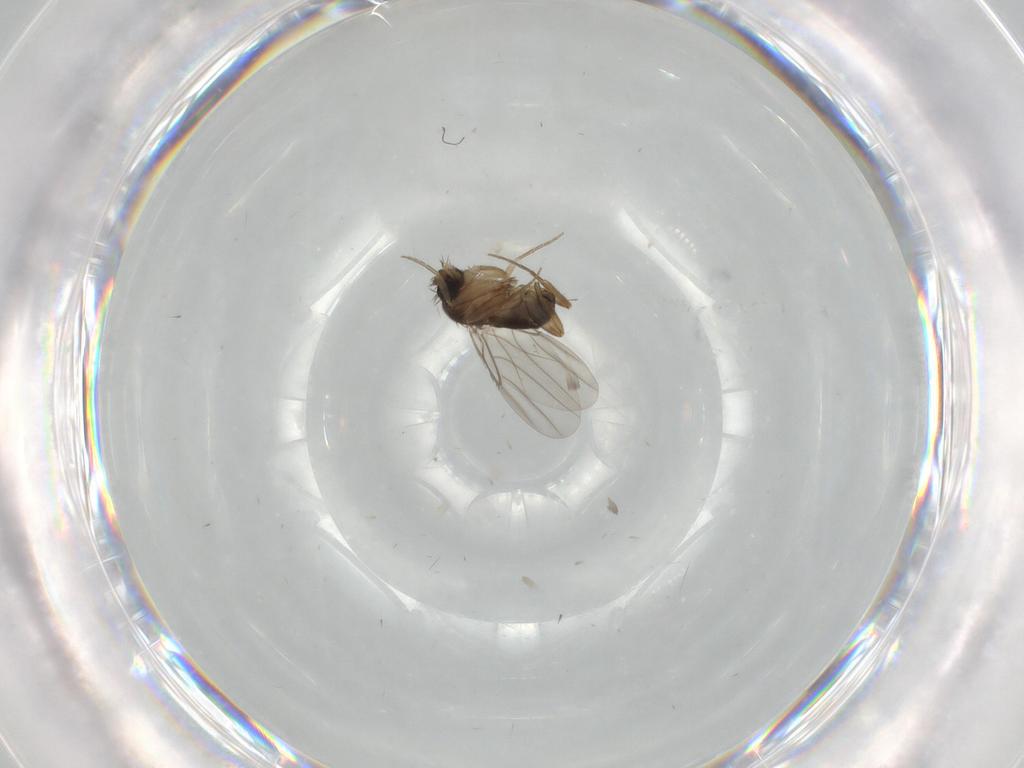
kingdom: Animalia
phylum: Arthropoda
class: Insecta
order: Diptera
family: Phoridae
